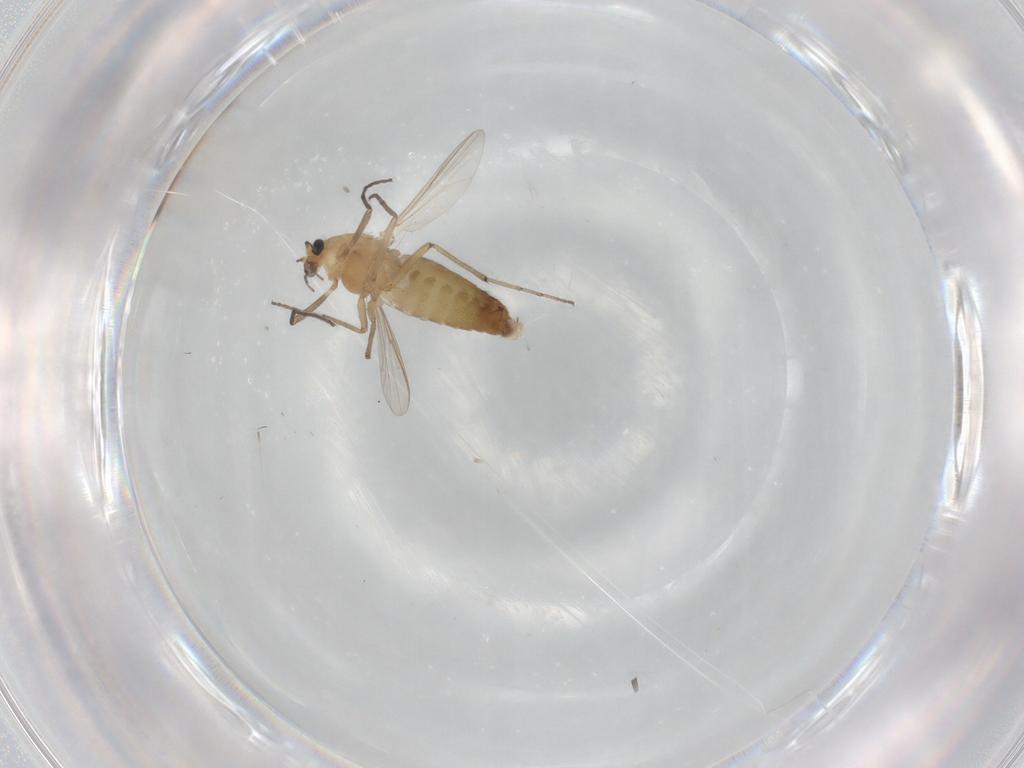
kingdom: Animalia
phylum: Arthropoda
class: Insecta
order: Diptera
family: Chironomidae
